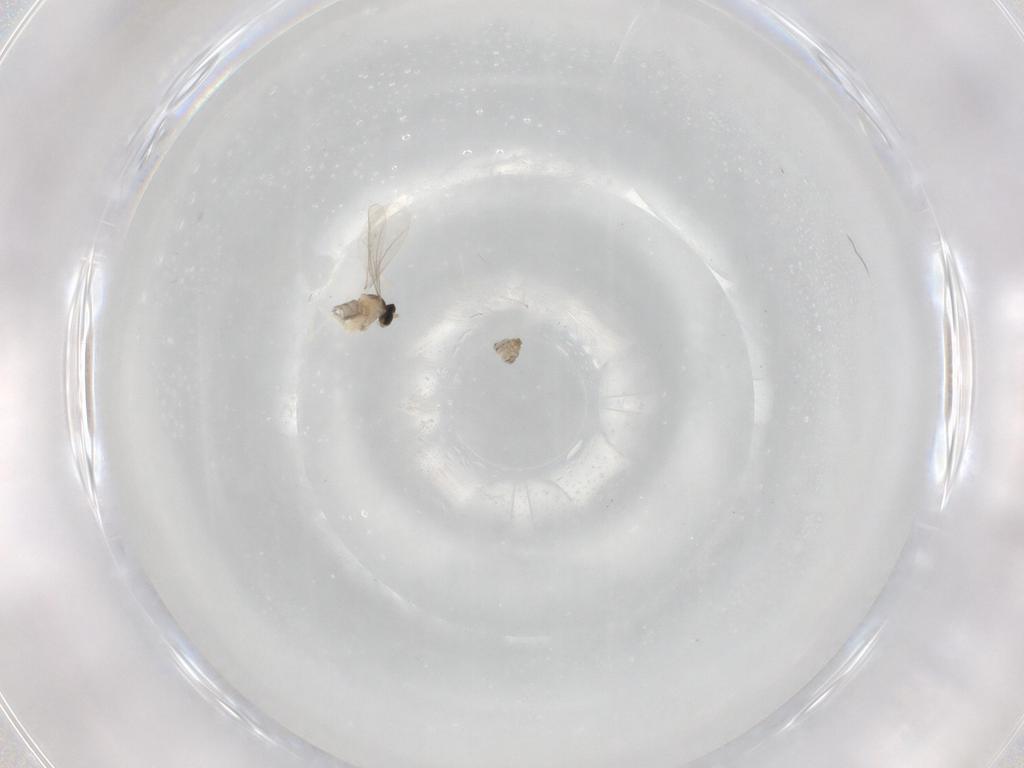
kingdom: Animalia
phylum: Arthropoda
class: Insecta
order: Diptera
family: Cecidomyiidae
